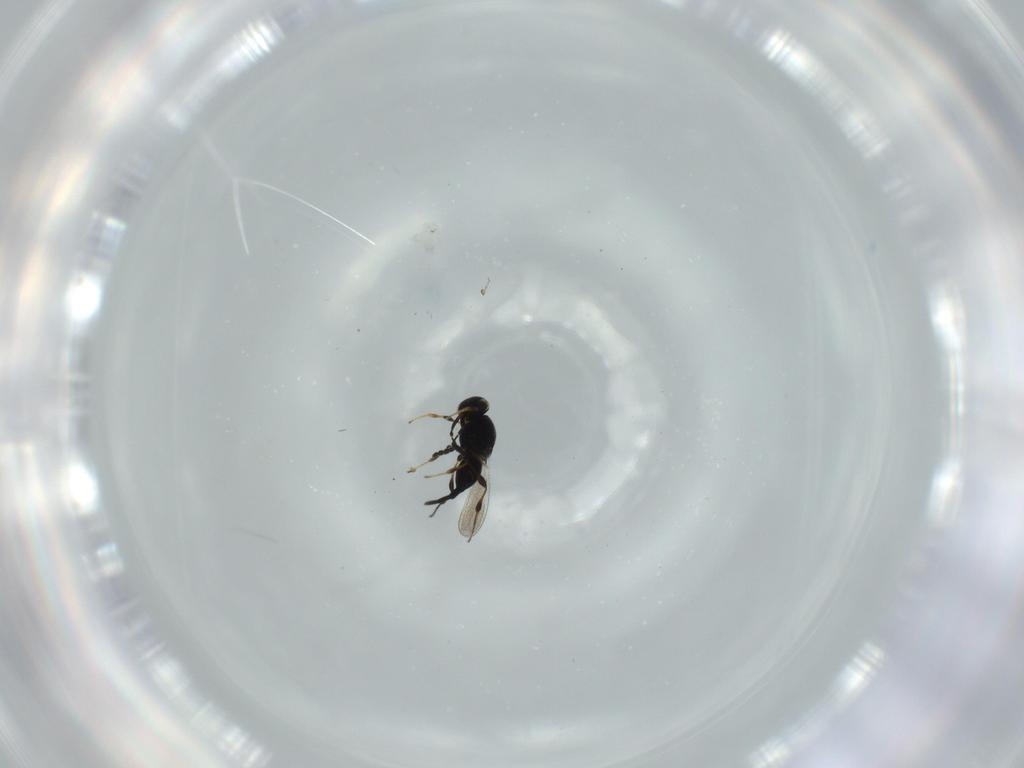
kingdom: Animalia
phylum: Arthropoda
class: Insecta
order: Hymenoptera
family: Platygastridae
